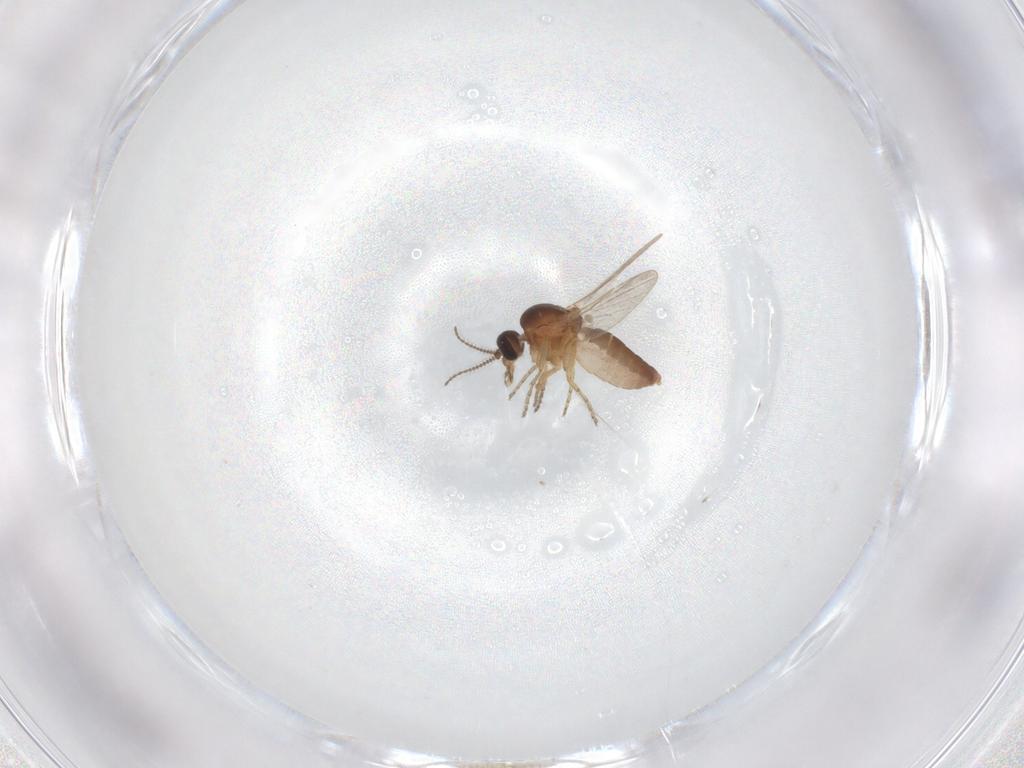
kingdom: Animalia
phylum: Arthropoda
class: Insecta
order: Diptera
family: Ceratopogonidae
